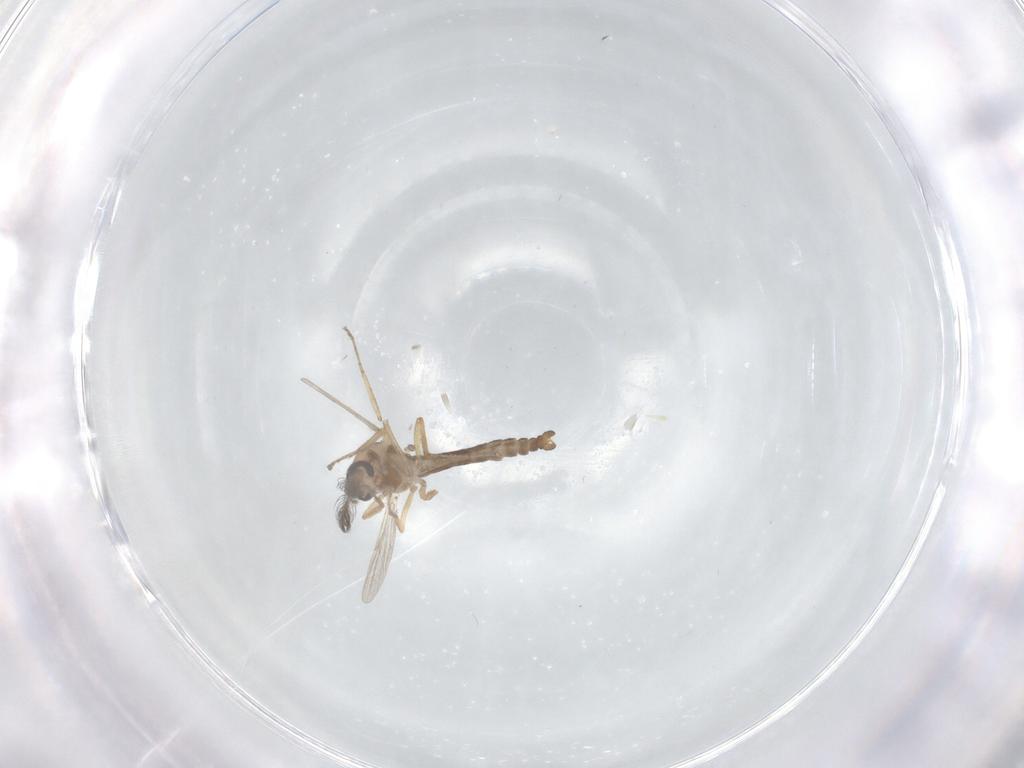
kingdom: Animalia
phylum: Arthropoda
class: Insecta
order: Diptera
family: Ceratopogonidae
